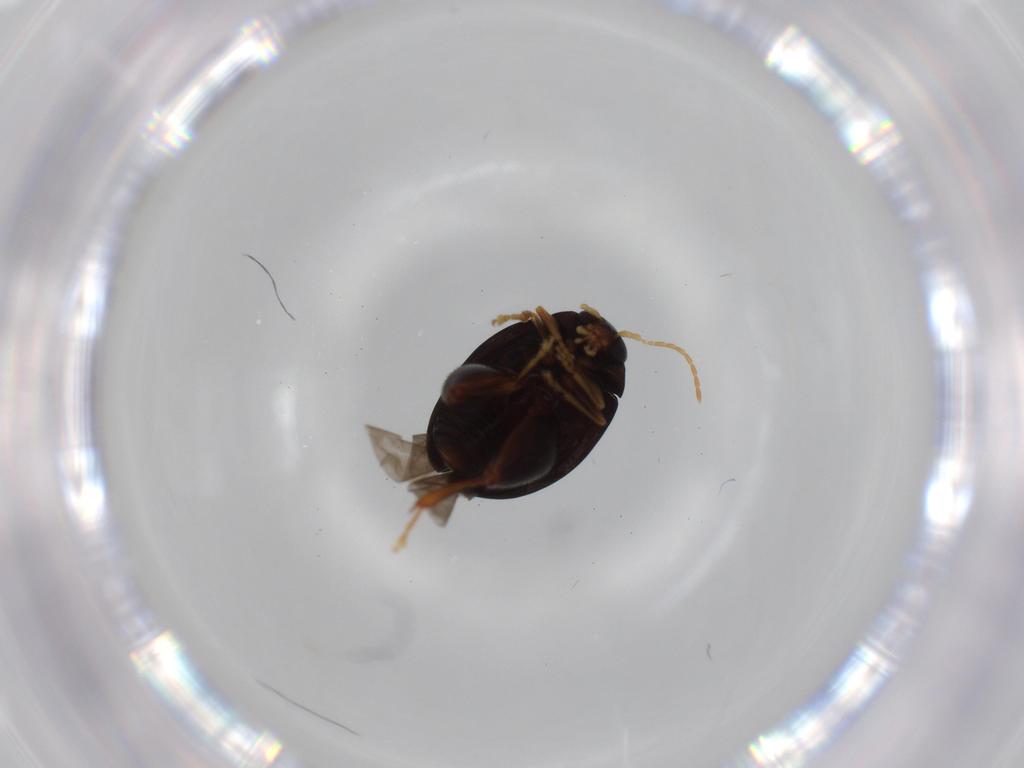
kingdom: Animalia
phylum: Arthropoda
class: Insecta
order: Coleoptera
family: Chrysomelidae
